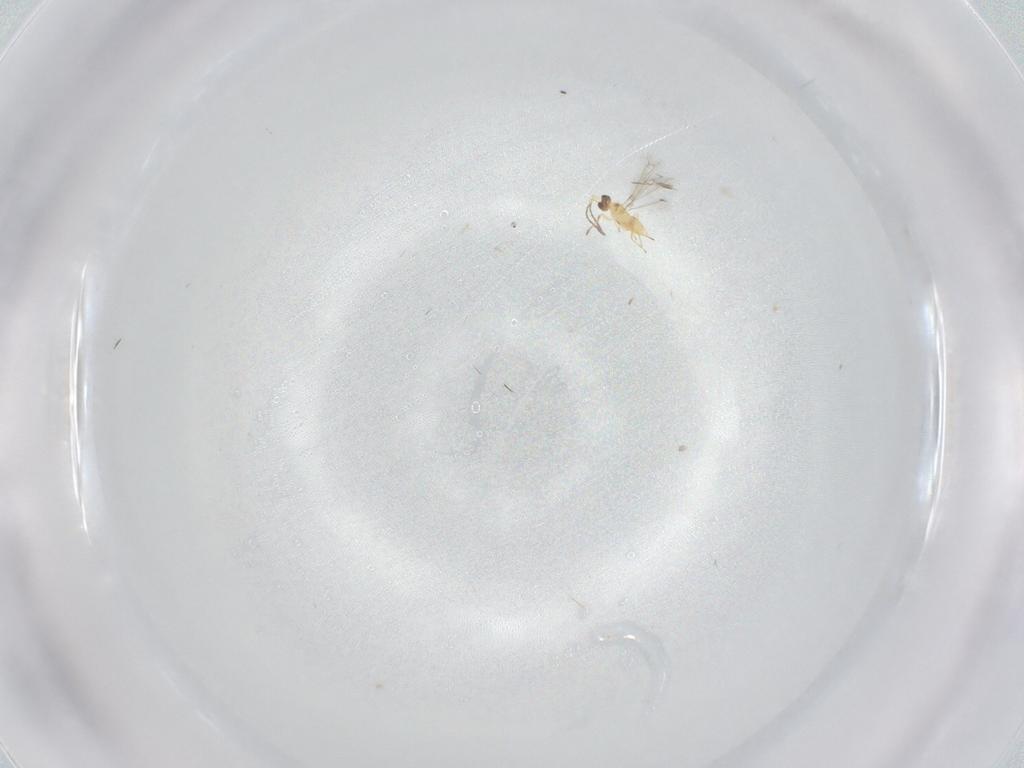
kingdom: Animalia
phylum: Arthropoda
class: Insecta
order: Hymenoptera
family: Mymaridae
